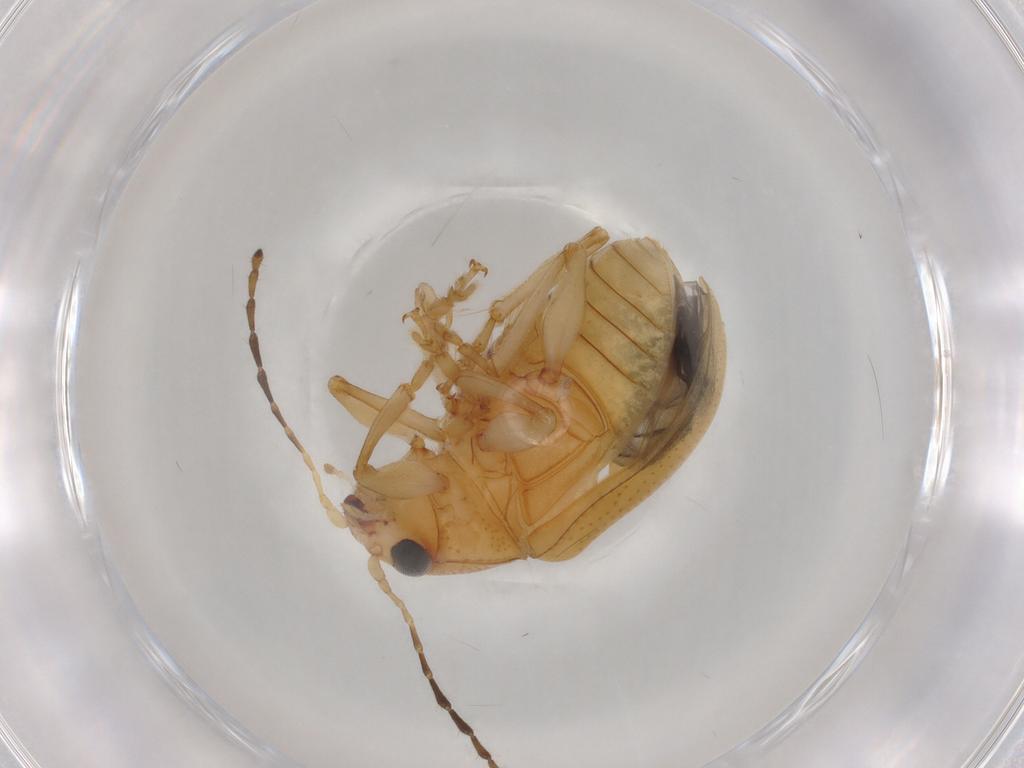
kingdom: Animalia
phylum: Arthropoda
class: Insecta
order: Coleoptera
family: Chrysomelidae
